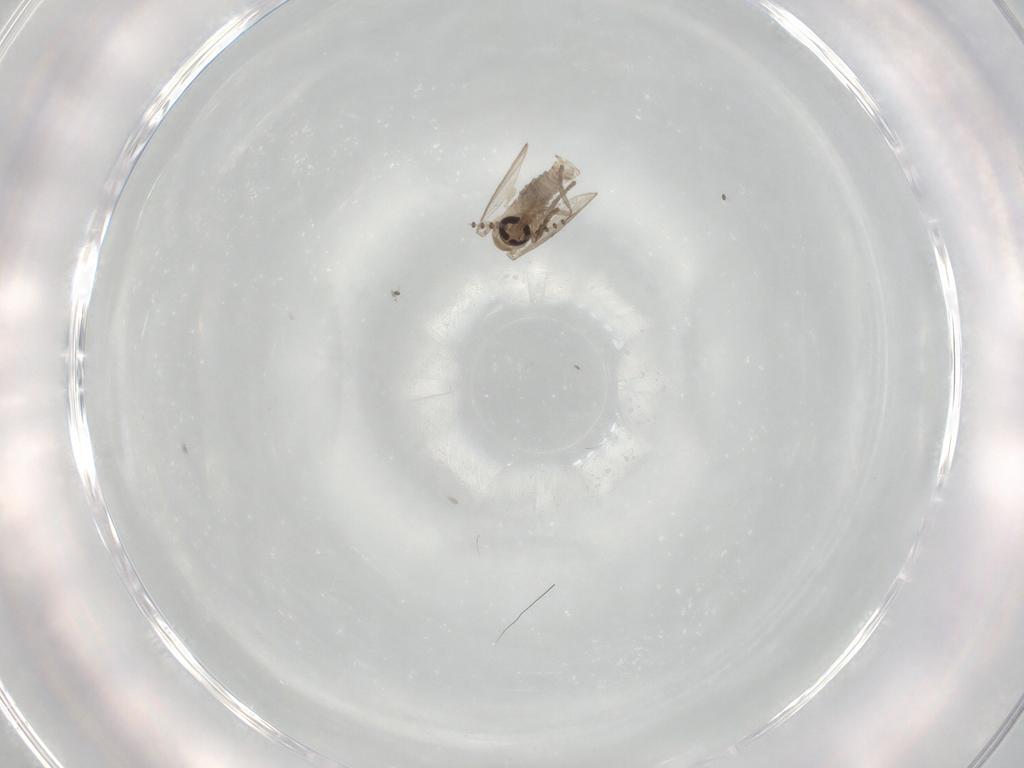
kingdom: Animalia
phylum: Arthropoda
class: Insecta
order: Diptera
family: Psychodidae
